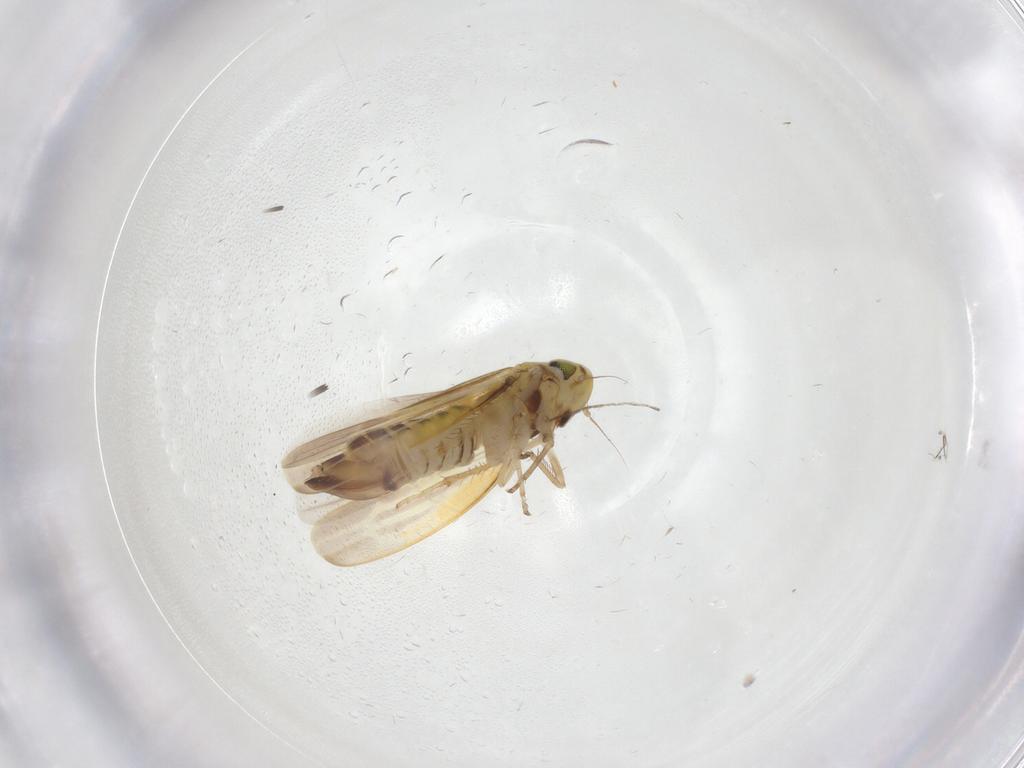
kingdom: Animalia
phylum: Arthropoda
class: Insecta
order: Hemiptera
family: Cicadellidae
